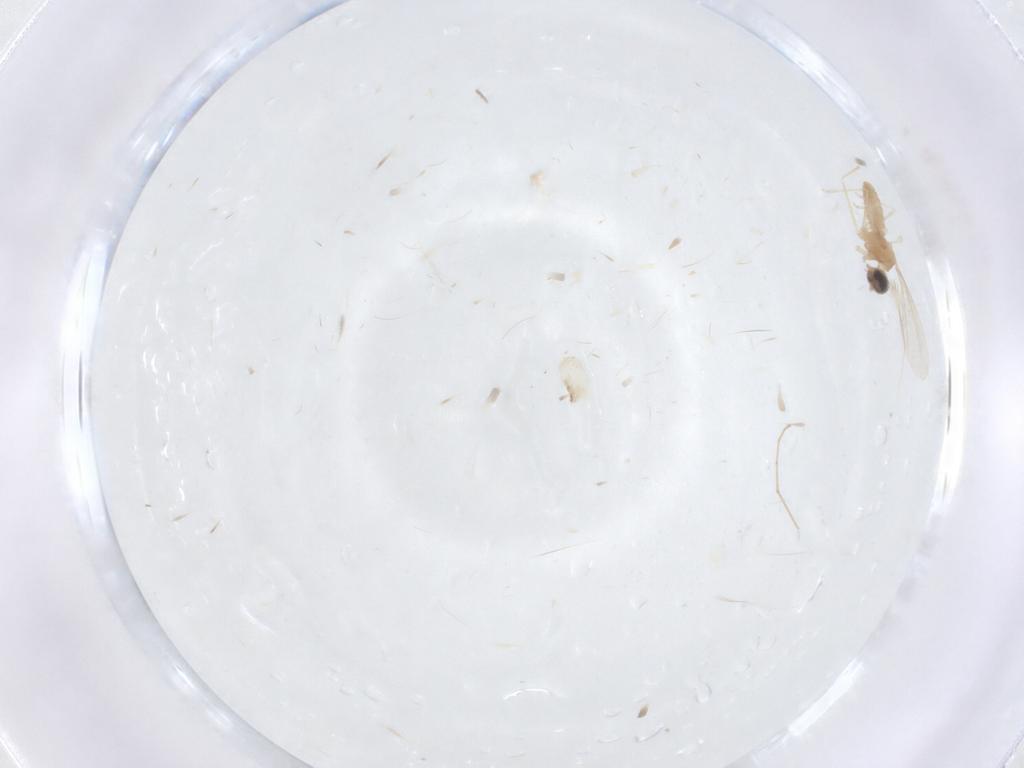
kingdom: Animalia
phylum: Arthropoda
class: Insecta
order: Diptera
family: Cecidomyiidae
